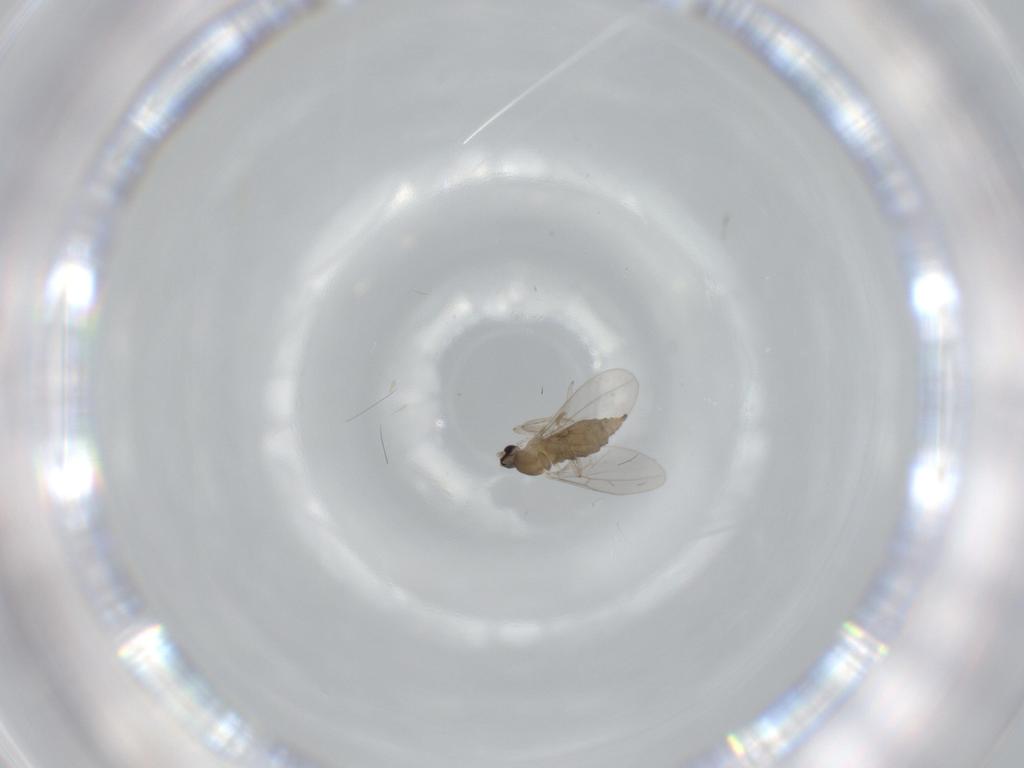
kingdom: Animalia
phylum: Arthropoda
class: Insecta
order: Diptera
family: Cecidomyiidae
